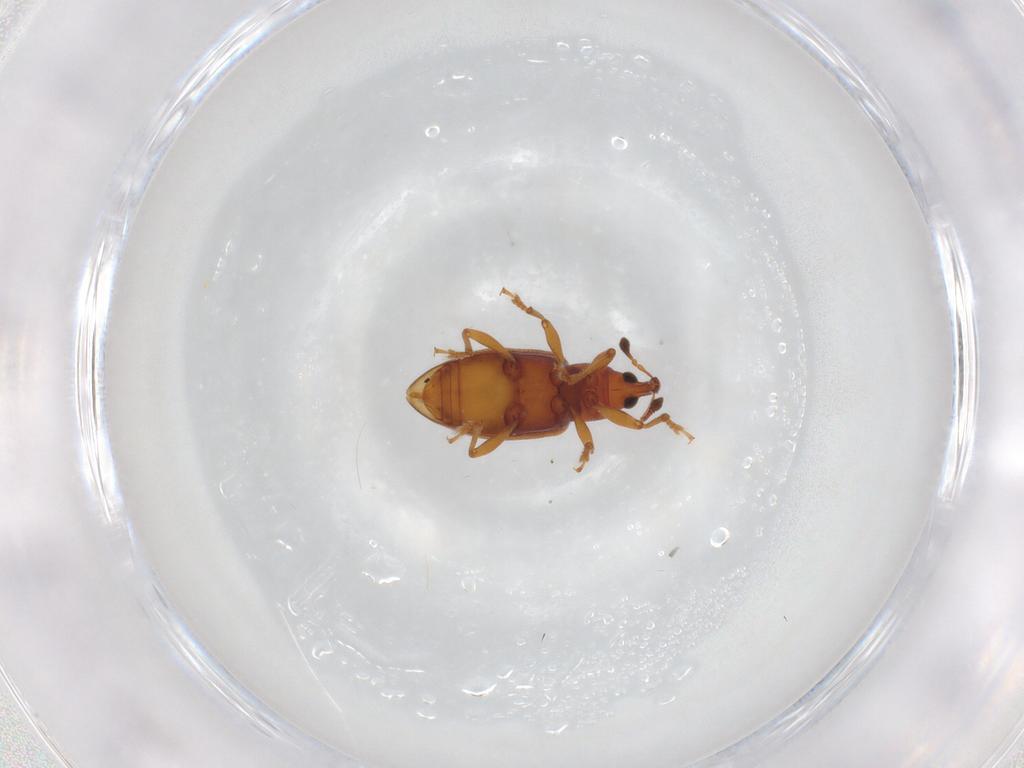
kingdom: Animalia
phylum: Arthropoda
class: Insecta
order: Coleoptera
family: Curculionidae
